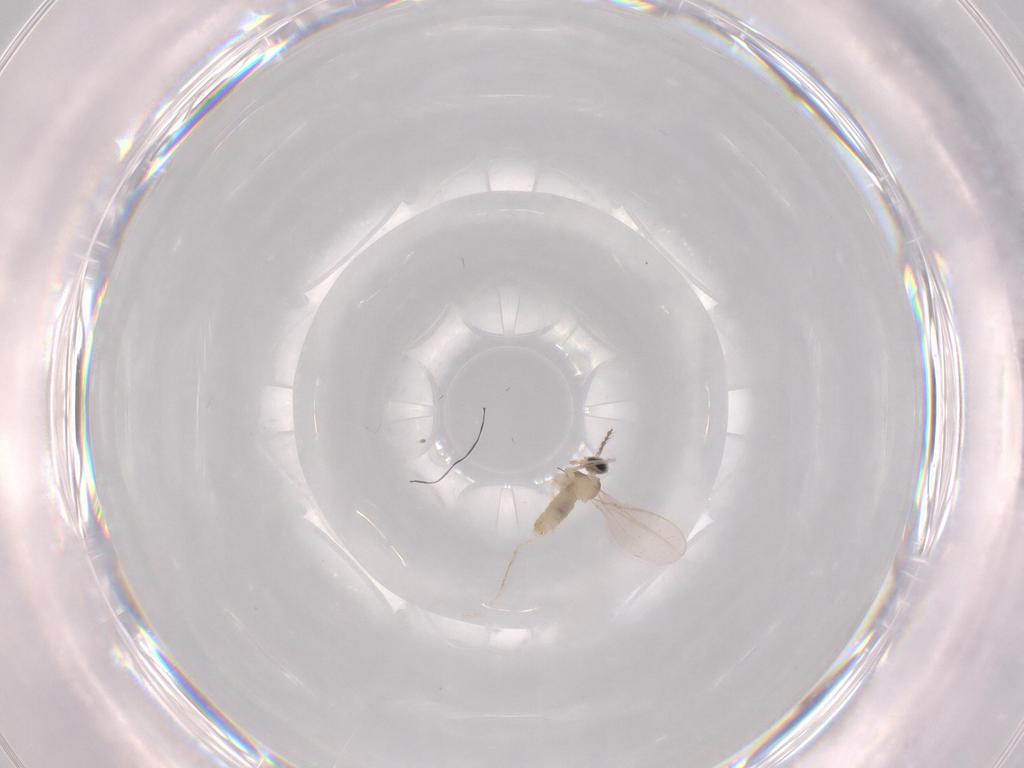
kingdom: Animalia
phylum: Arthropoda
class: Insecta
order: Diptera
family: Cecidomyiidae
